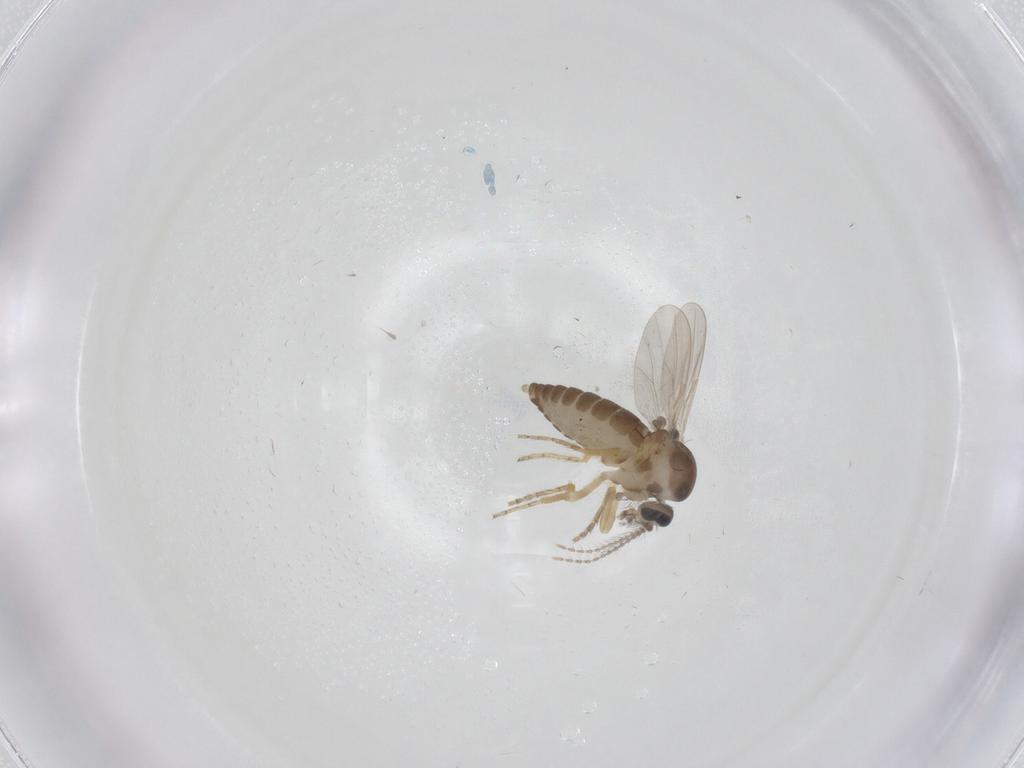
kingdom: Animalia
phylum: Arthropoda
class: Insecta
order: Diptera
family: Ceratopogonidae
